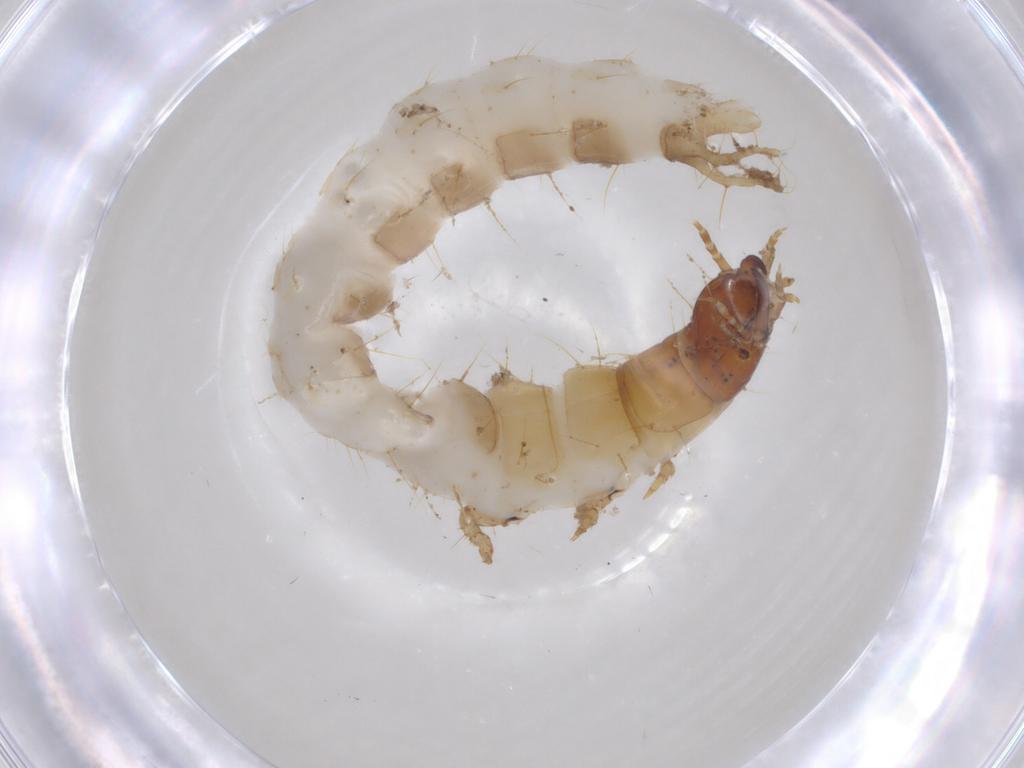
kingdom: Animalia
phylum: Arthropoda
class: Insecta
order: Coleoptera
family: Carabidae
